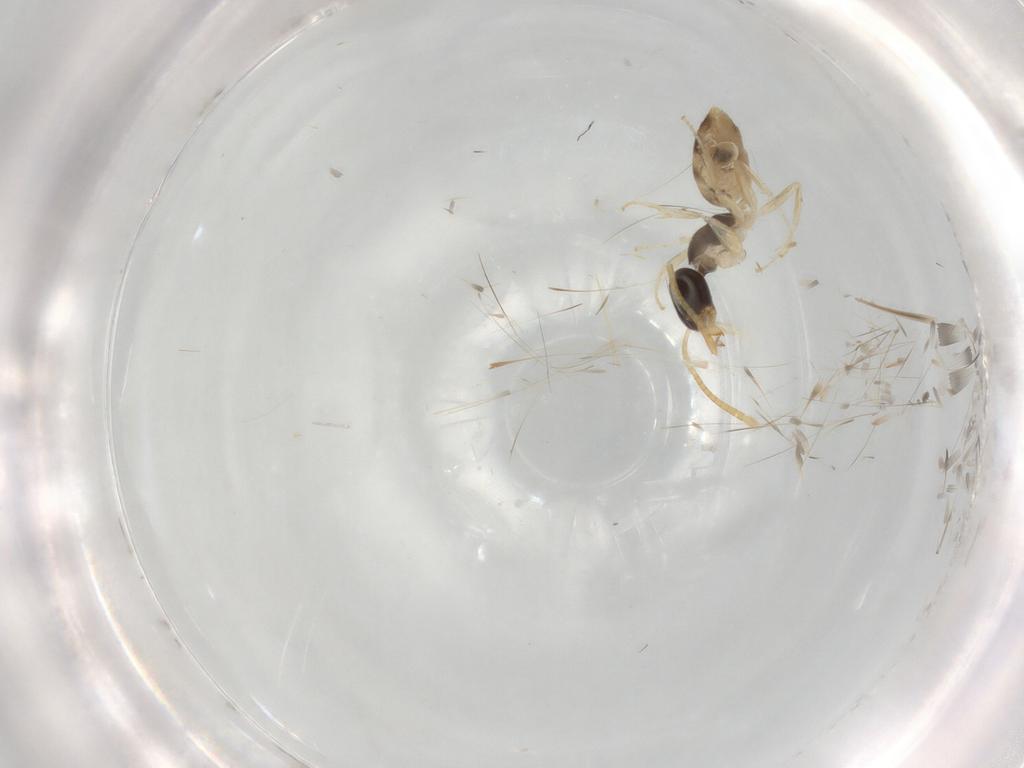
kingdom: Animalia
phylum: Arthropoda
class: Insecta
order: Hymenoptera
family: Formicidae
